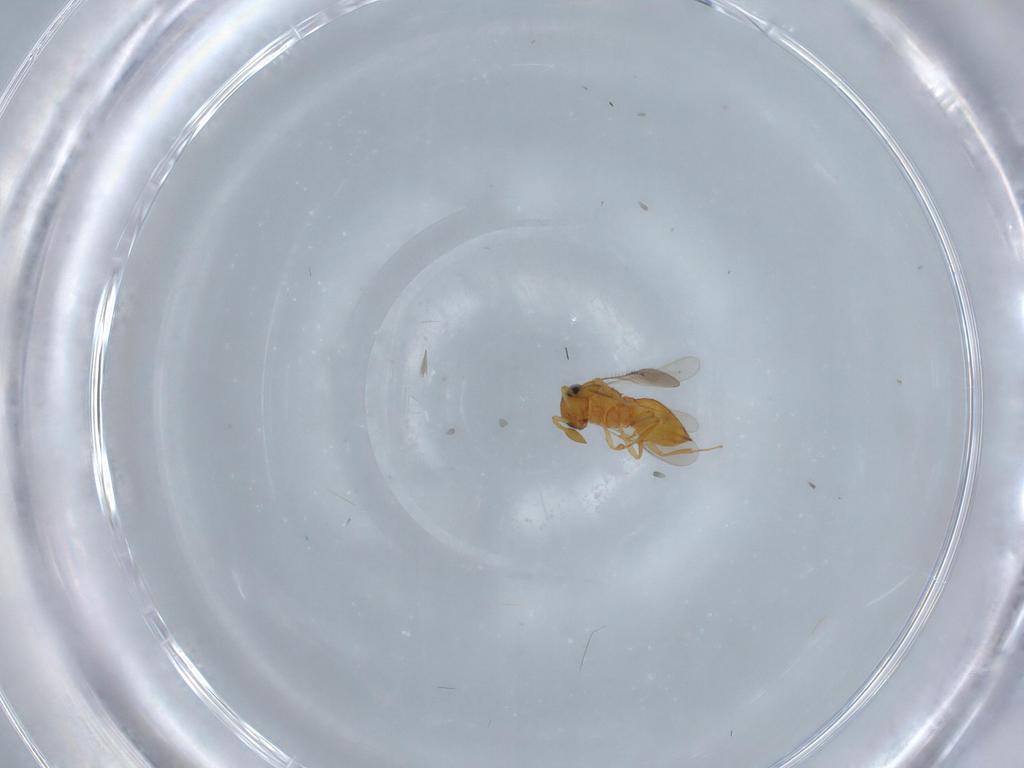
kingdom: Animalia
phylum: Arthropoda
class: Insecta
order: Hymenoptera
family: Scelionidae
